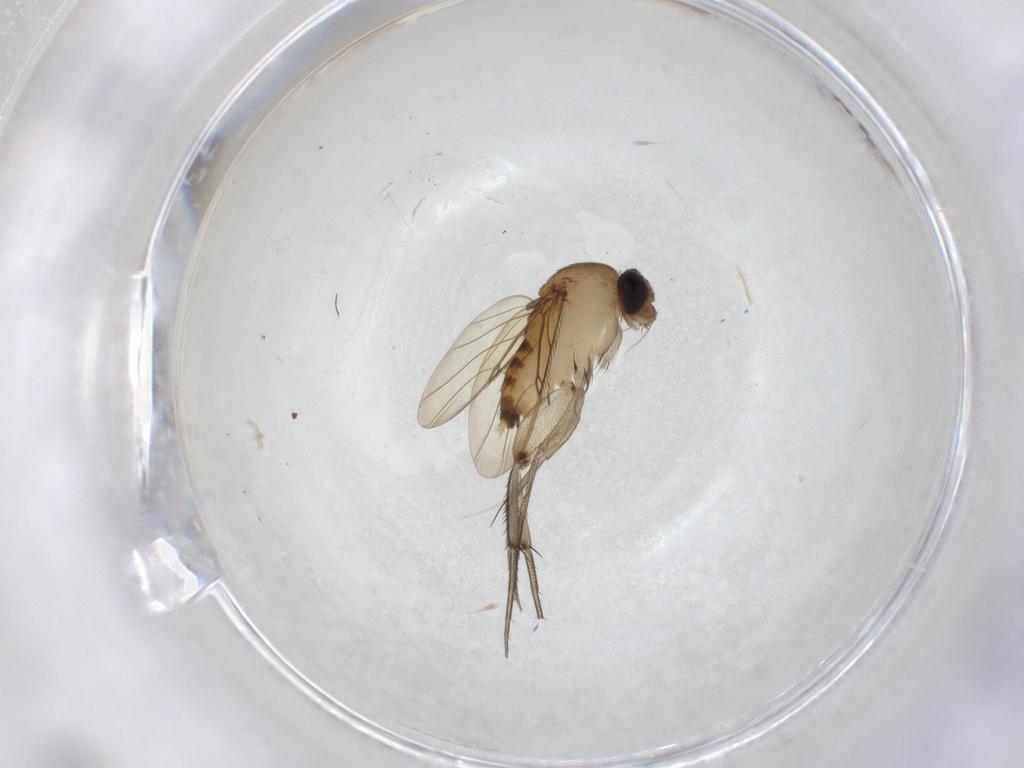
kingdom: Animalia
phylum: Arthropoda
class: Insecta
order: Diptera
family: Phoridae
